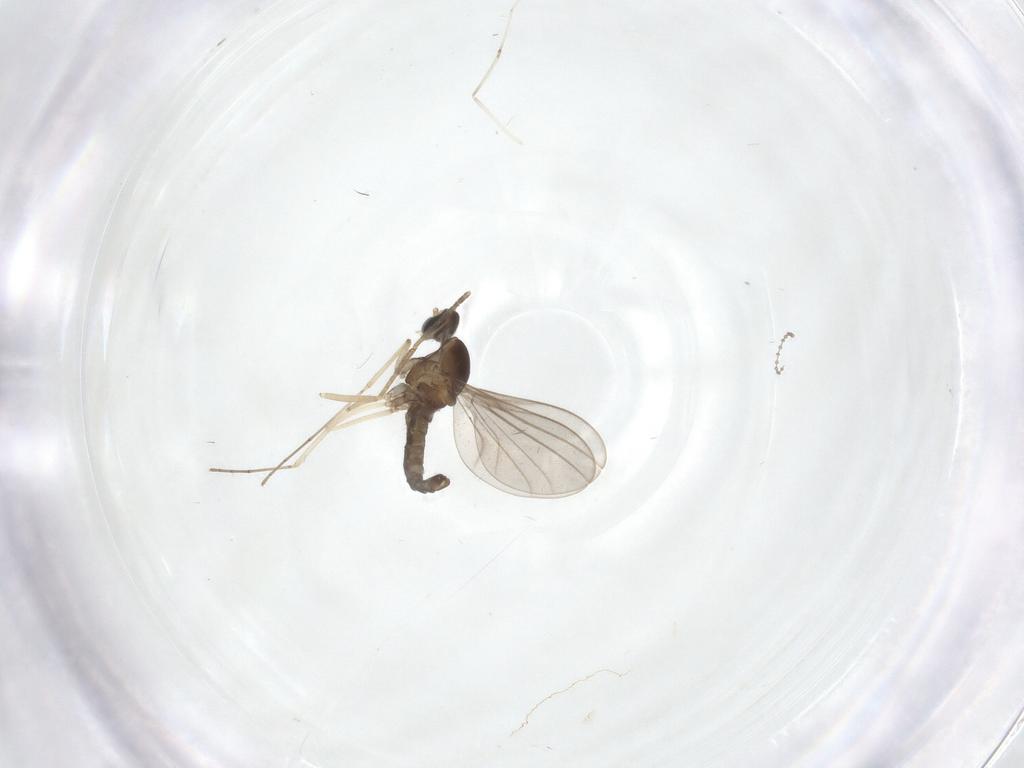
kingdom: Animalia
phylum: Arthropoda
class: Insecta
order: Diptera
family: Cecidomyiidae
